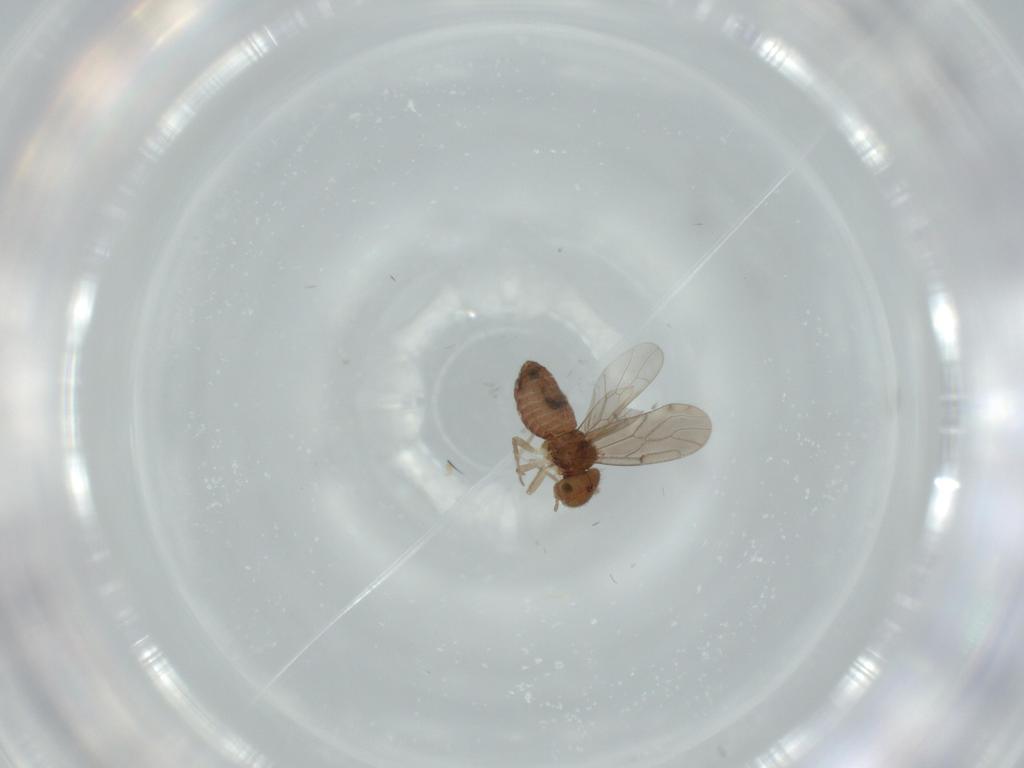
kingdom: Animalia
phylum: Arthropoda
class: Insecta
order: Psocodea
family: Ectopsocidae
